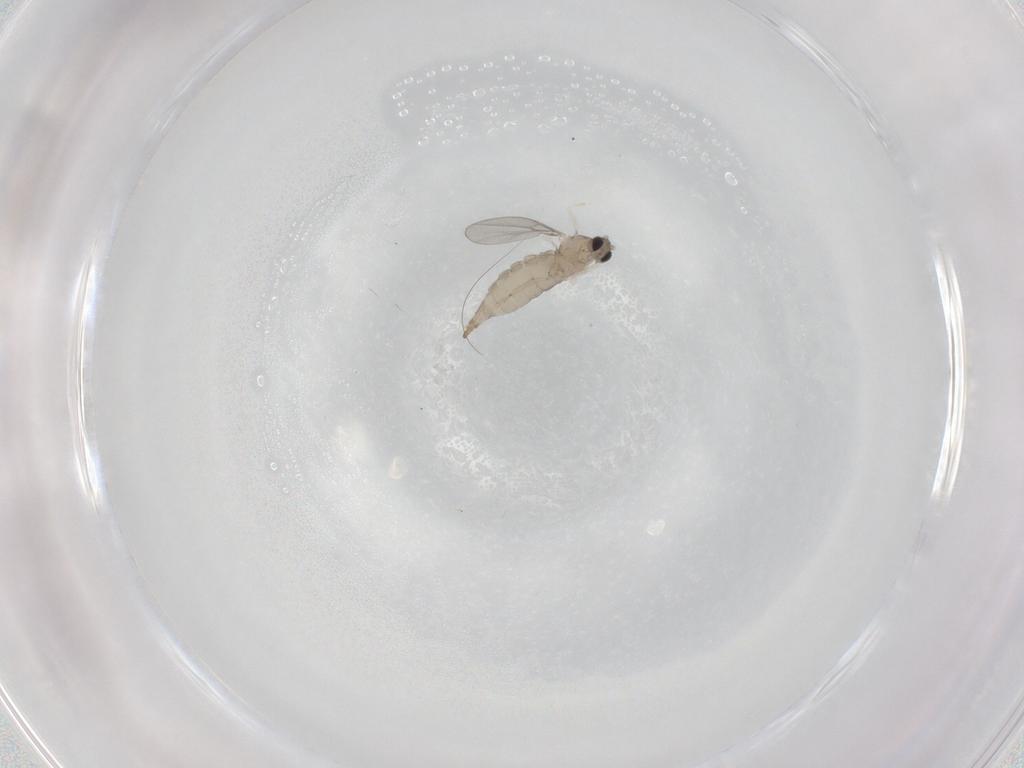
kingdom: Animalia
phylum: Arthropoda
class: Insecta
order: Diptera
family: Cecidomyiidae
